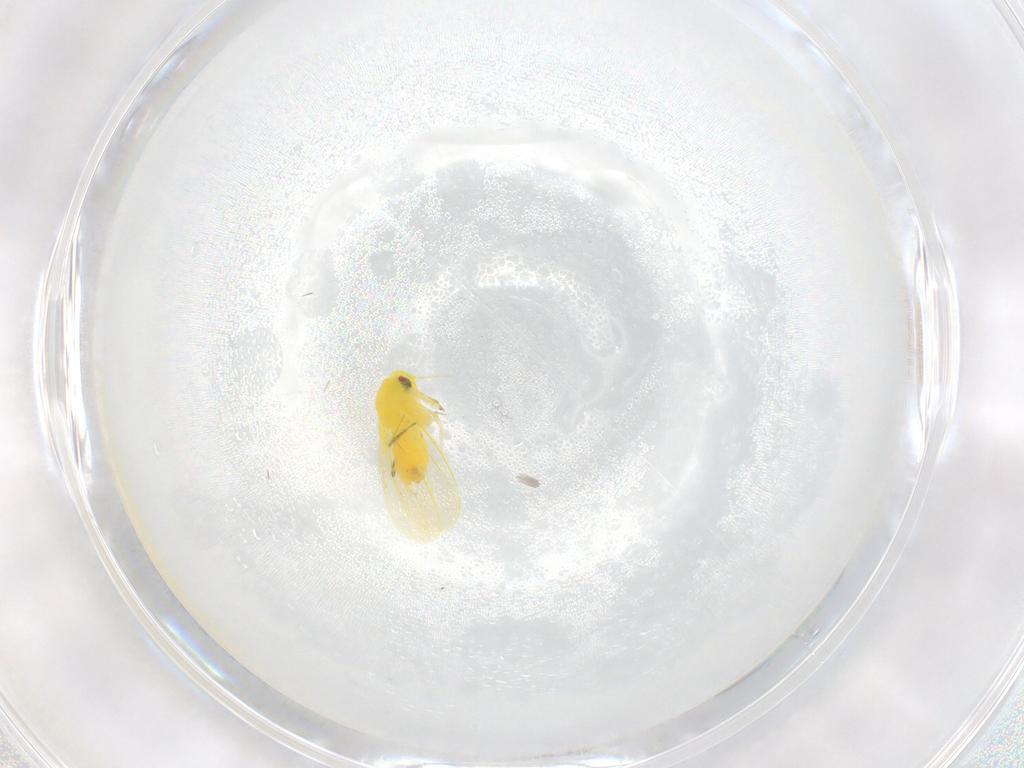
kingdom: Animalia
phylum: Arthropoda
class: Insecta
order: Hemiptera
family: Aleyrodidae
